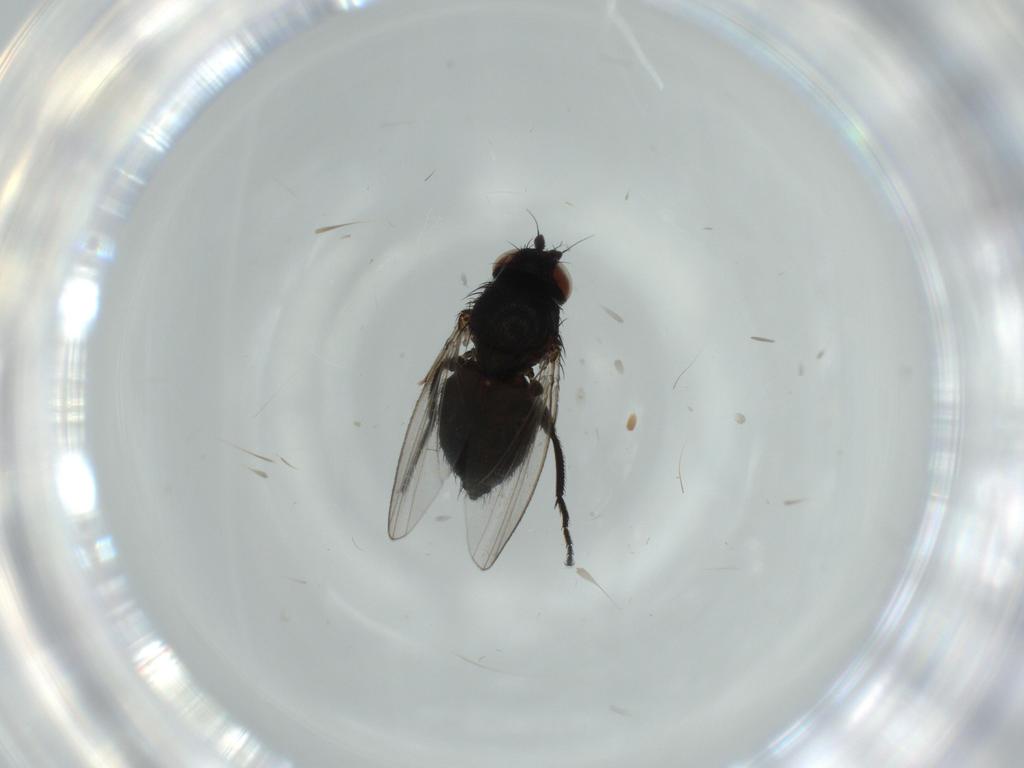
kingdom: Animalia
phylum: Arthropoda
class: Insecta
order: Diptera
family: Milichiidae
